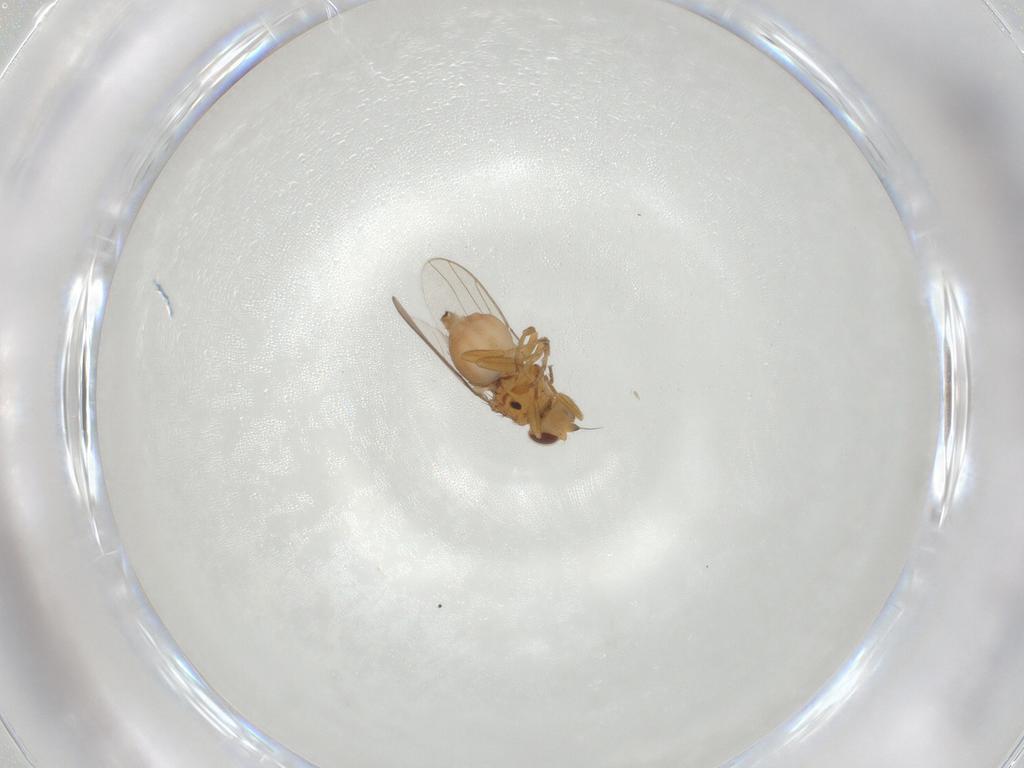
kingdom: Animalia
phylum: Arthropoda
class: Insecta
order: Diptera
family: Chloropidae
